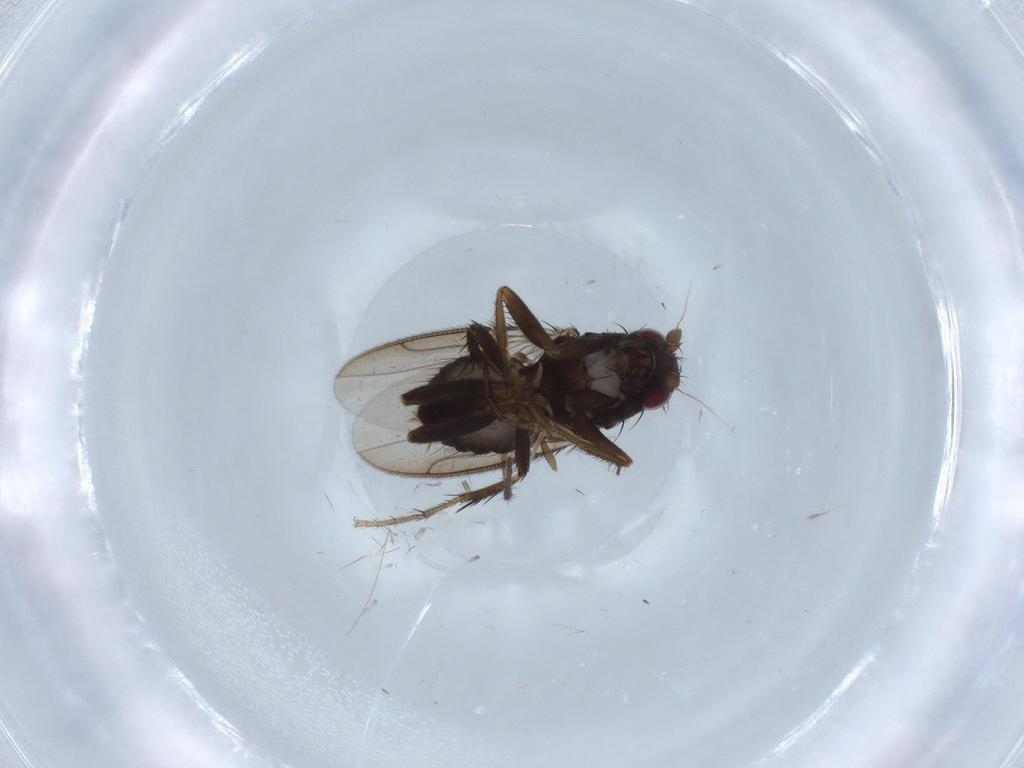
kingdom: Animalia
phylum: Arthropoda
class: Insecta
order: Diptera
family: Sphaeroceridae
